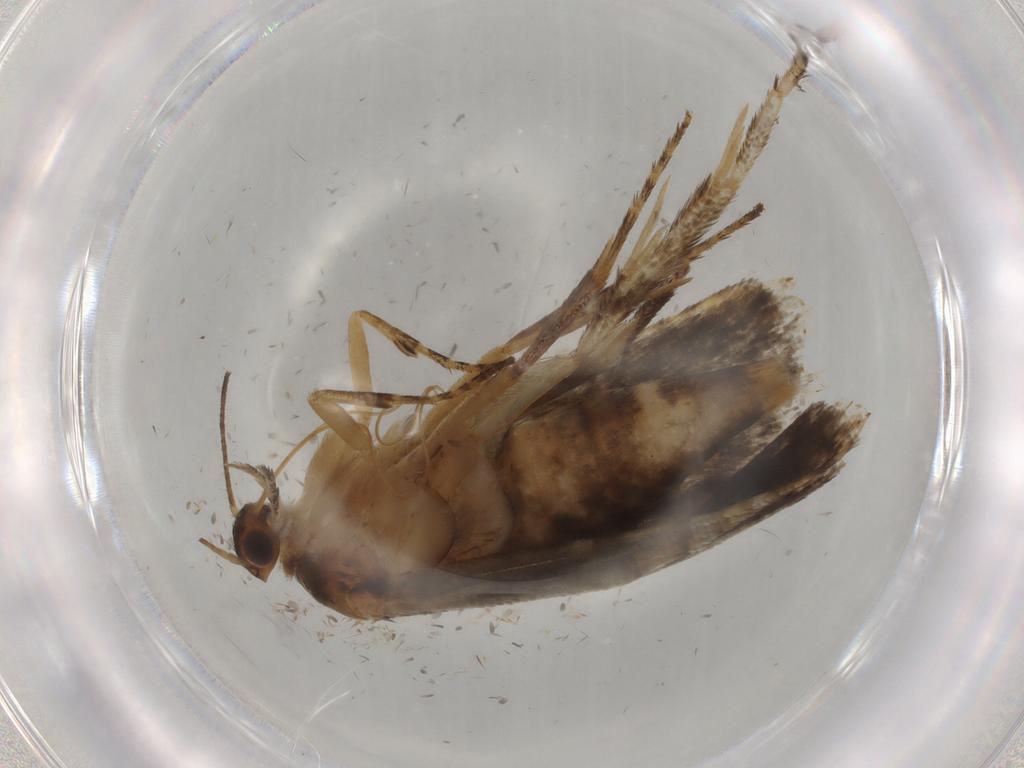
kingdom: Animalia
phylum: Arthropoda
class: Insecta
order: Lepidoptera
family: Glyphipterigidae
